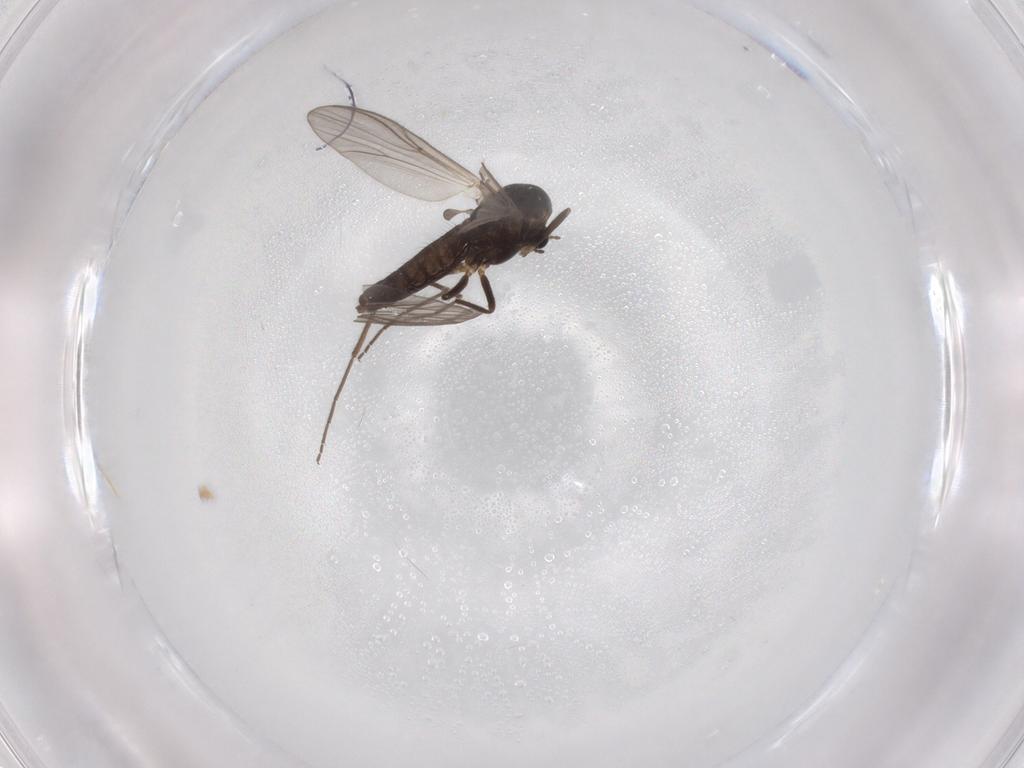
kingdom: Animalia
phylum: Arthropoda
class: Insecta
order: Diptera
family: Chironomidae
